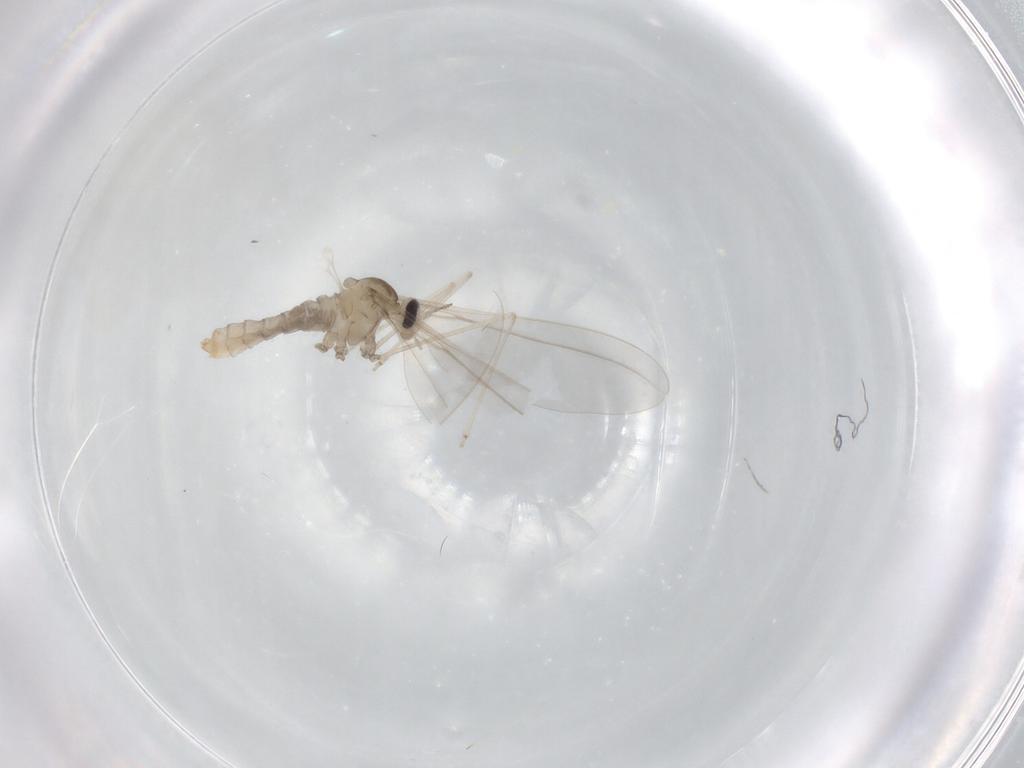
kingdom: Animalia
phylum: Arthropoda
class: Insecta
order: Diptera
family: Cecidomyiidae
